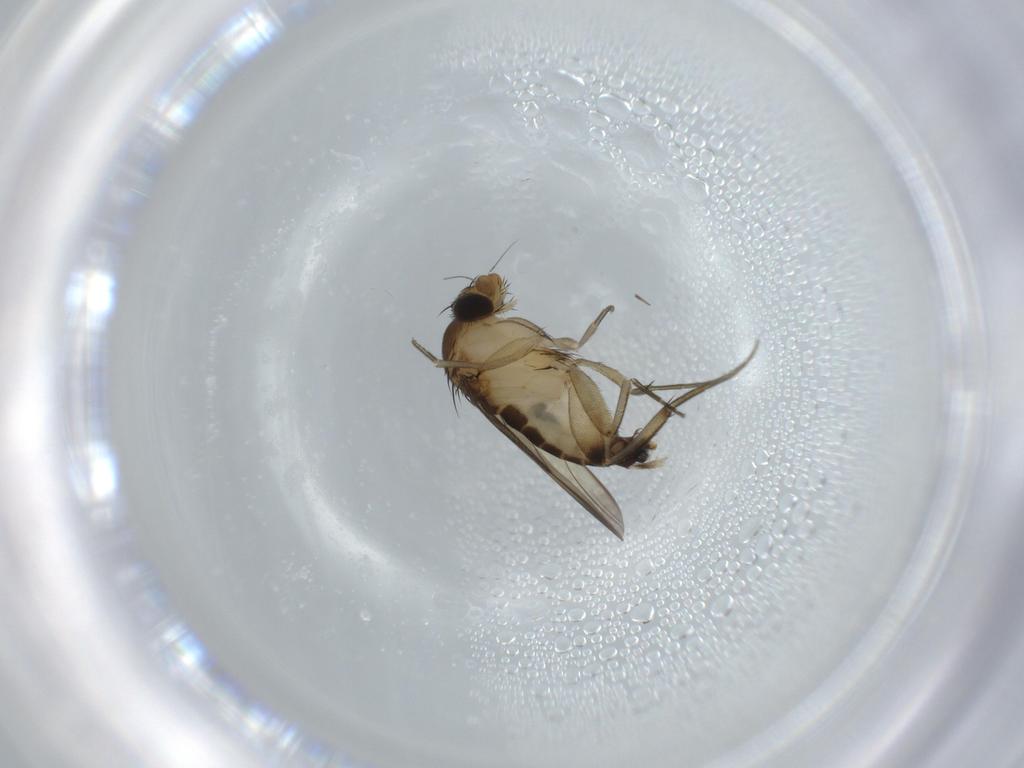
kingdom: Animalia
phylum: Arthropoda
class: Insecta
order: Diptera
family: Phoridae
